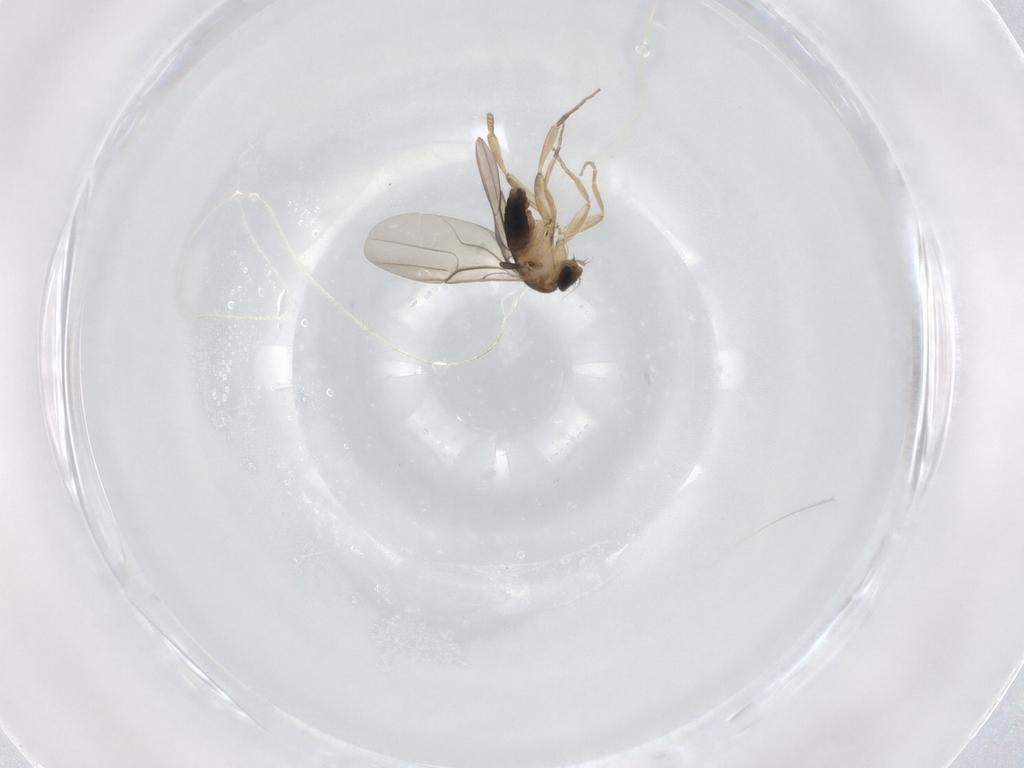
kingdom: Animalia
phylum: Arthropoda
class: Insecta
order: Diptera
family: Phoridae
